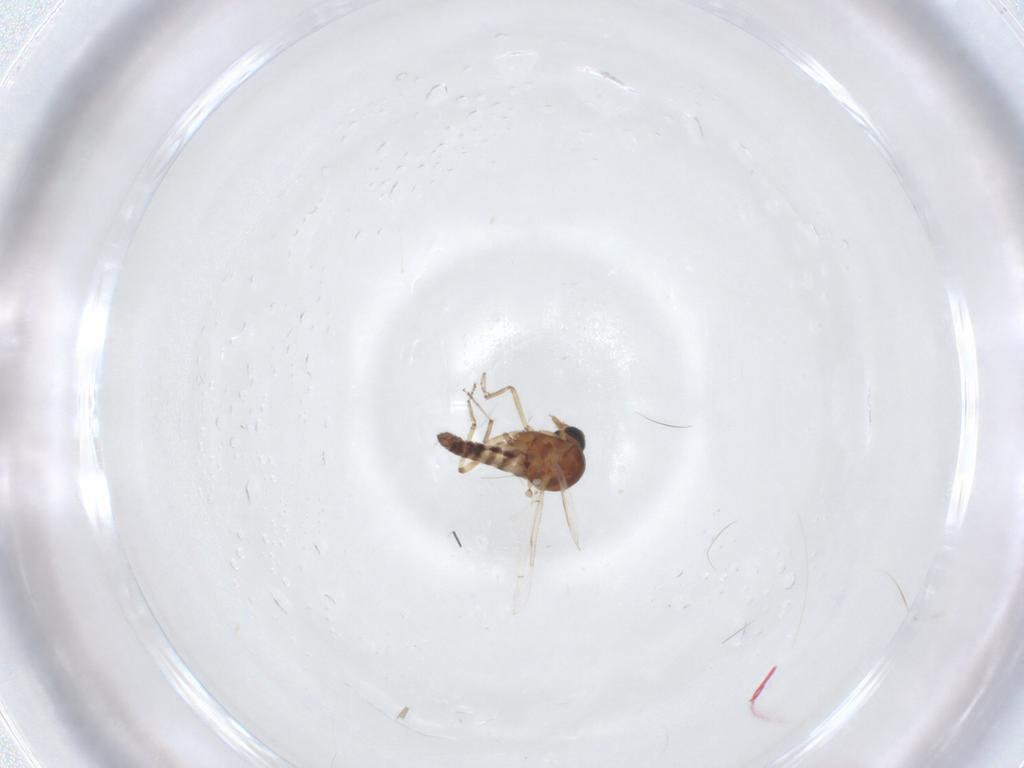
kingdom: Animalia
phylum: Arthropoda
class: Insecta
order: Diptera
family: Ceratopogonidae
